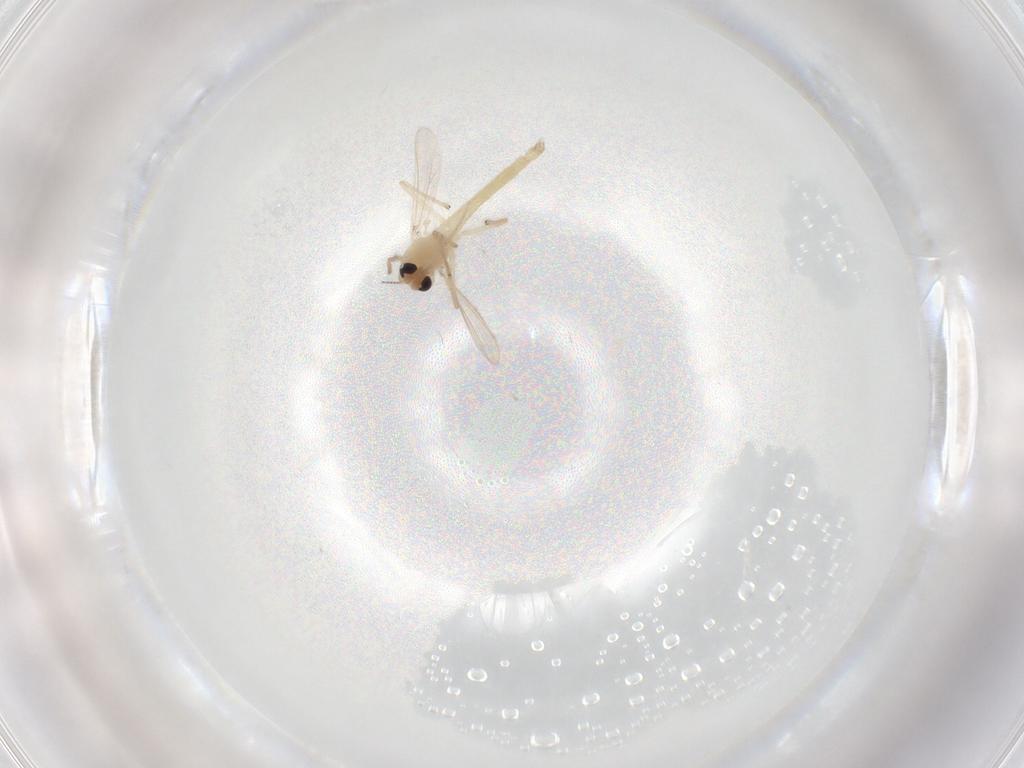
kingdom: Animalia
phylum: Arthropoda
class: Insecta
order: Diptera
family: Chironomidae
